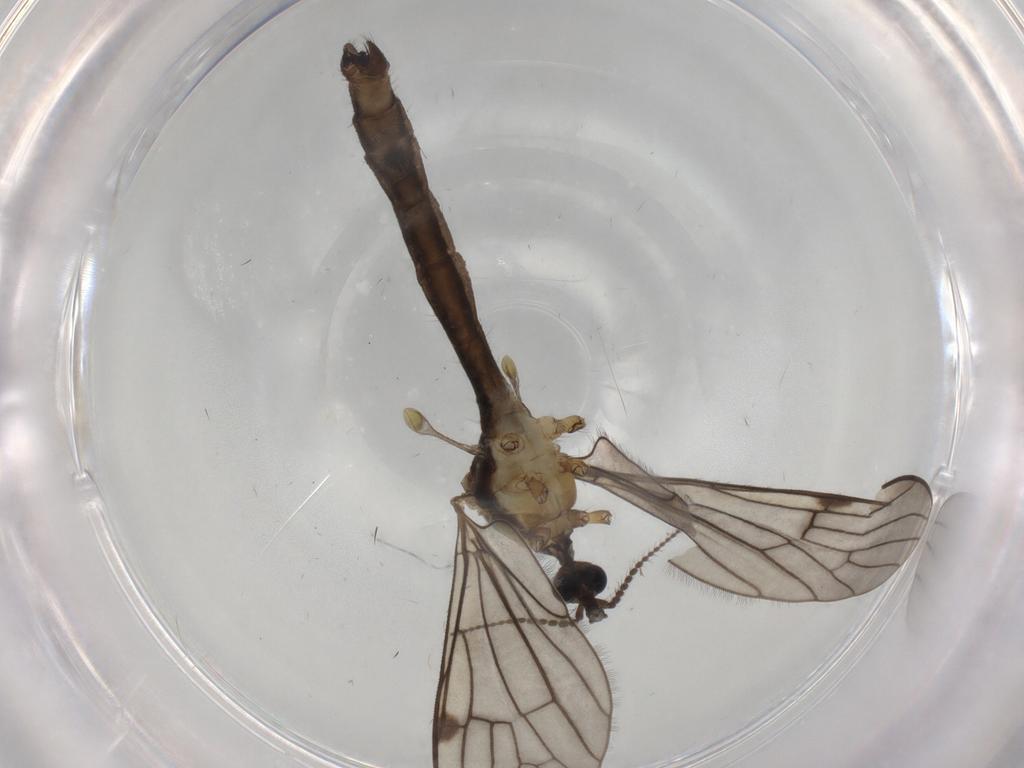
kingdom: Animalia
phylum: Arthropoda
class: Insecta
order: Diptera
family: Limoniidae
